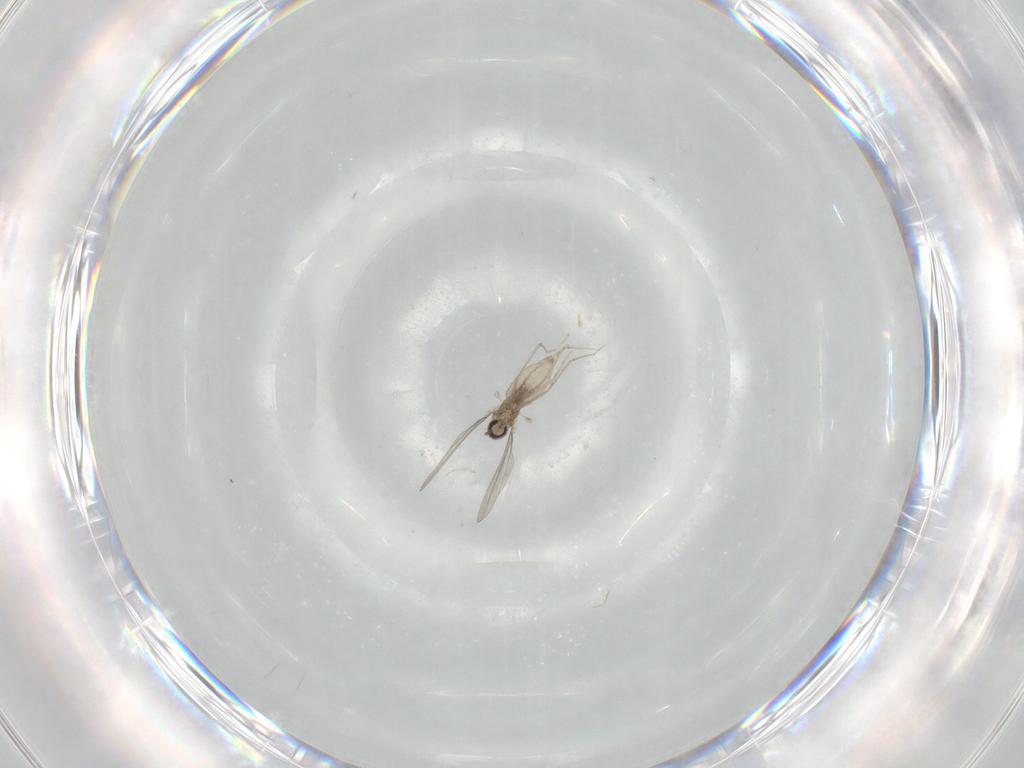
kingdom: Animalia
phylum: Arthropoda
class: Insecta
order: Diptera
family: Cecidomyiidae
